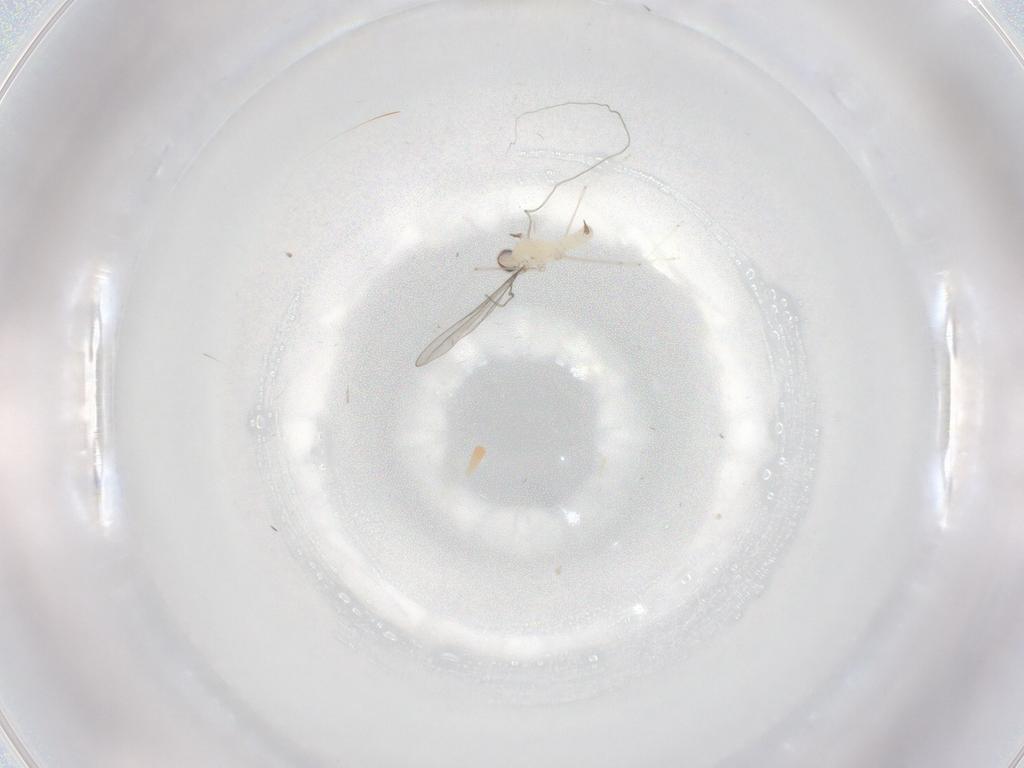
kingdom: Animalia
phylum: Arthropoda
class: Insecta
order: Diptera
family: Cecidomyiidae
